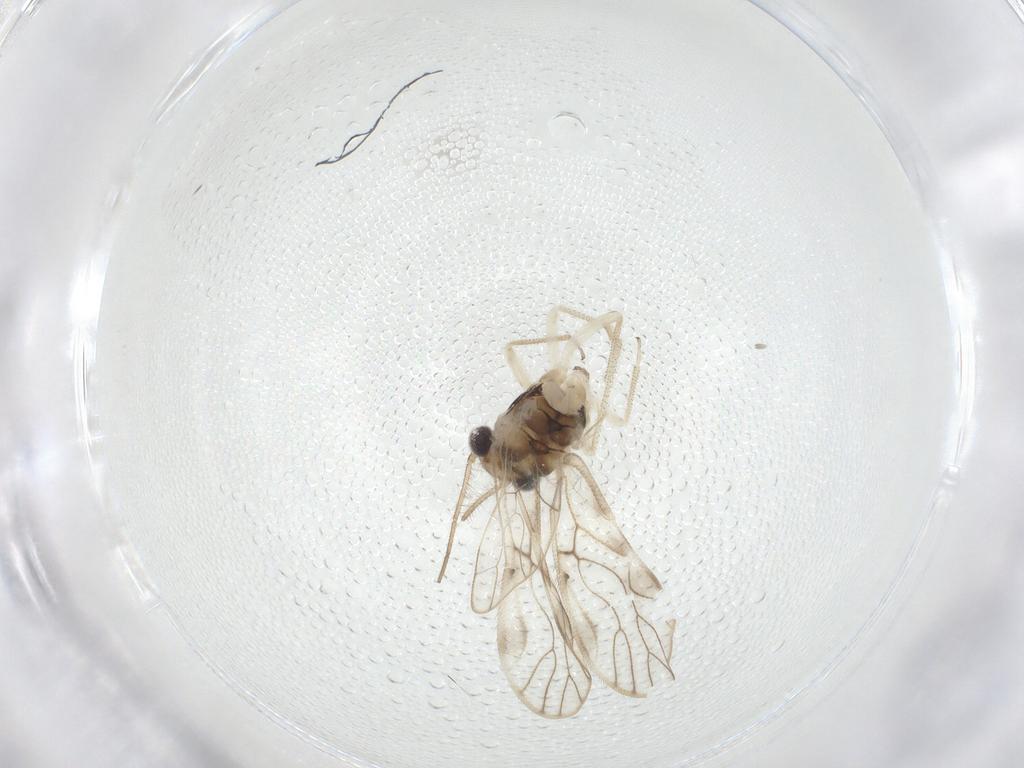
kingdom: Animalia
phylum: Arthropoda
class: Insecta
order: Psocodea
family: Caeciliusidae
